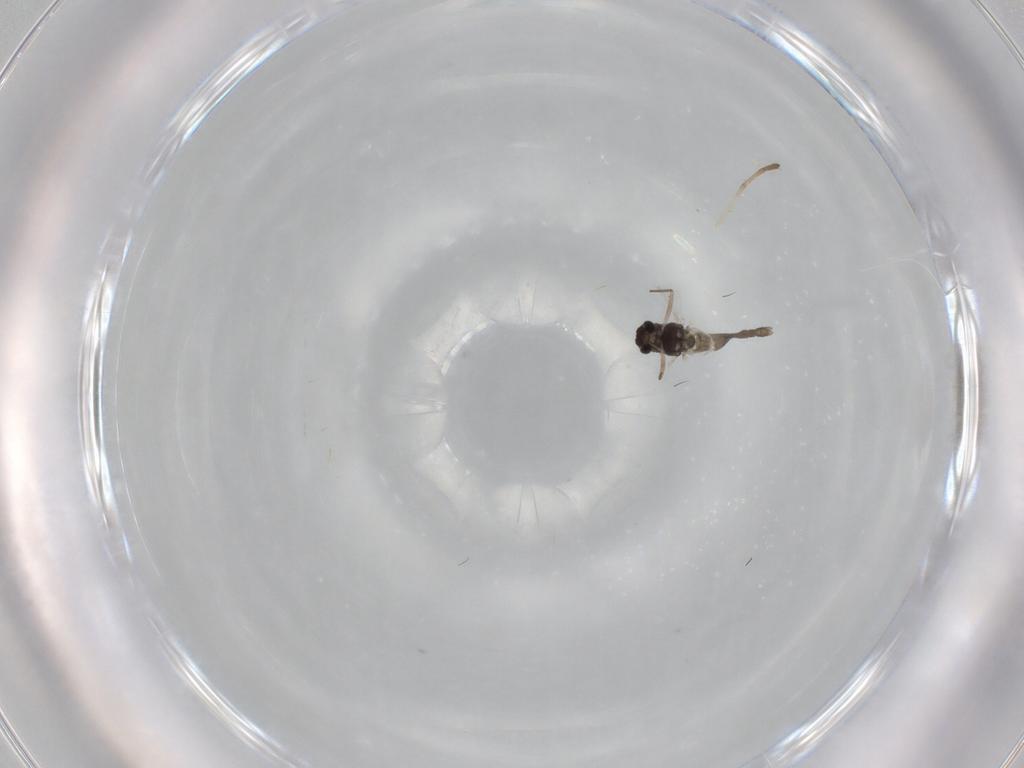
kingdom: Animalia
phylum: Arthropoda
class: Insecta
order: Diptera
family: Chironomidae
